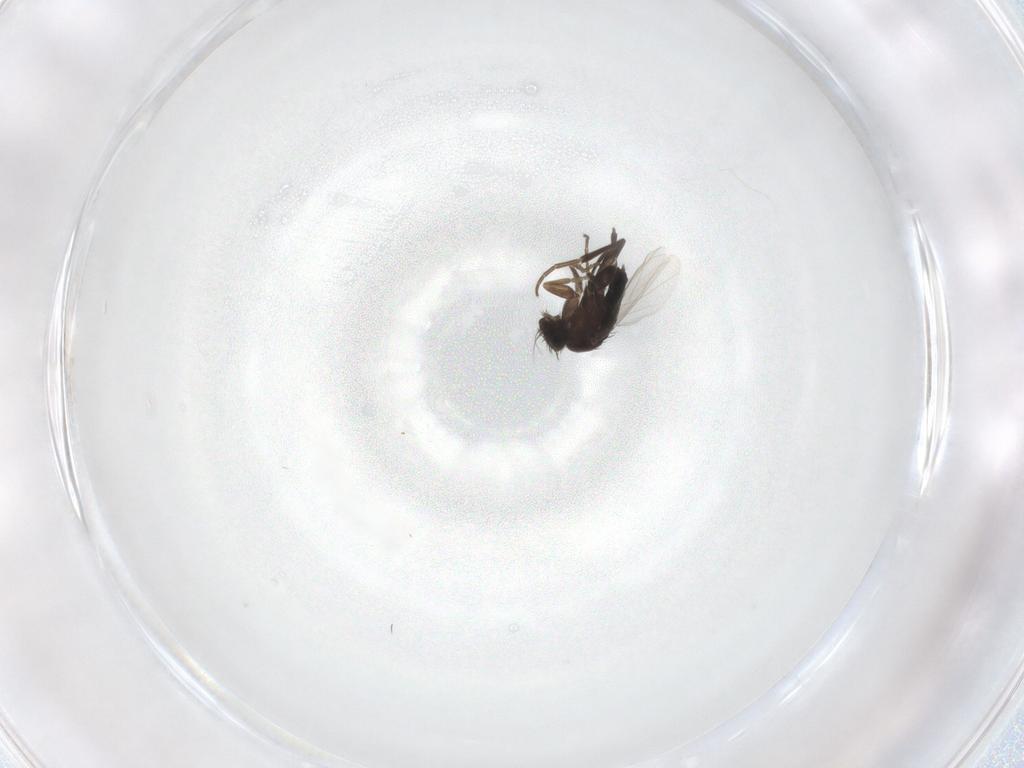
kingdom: Animalia
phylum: Arthropoda
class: Insecta
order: Diptera
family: Phoridae
